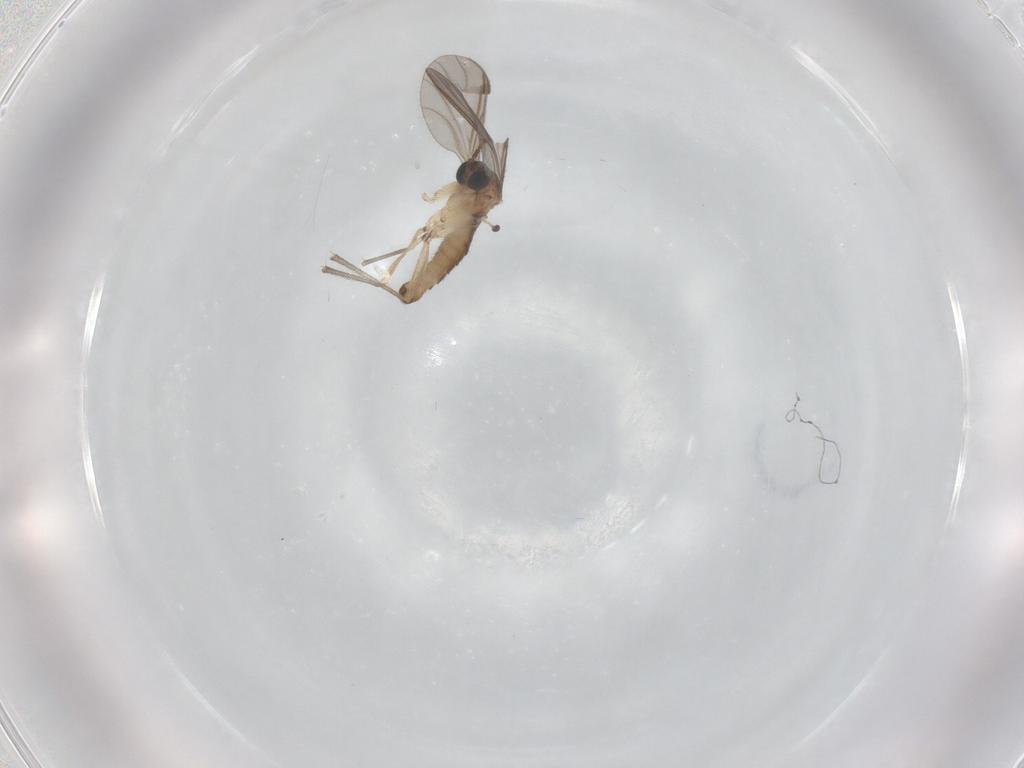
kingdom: Animalia
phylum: Arthropoda
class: Insecta
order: Diptera
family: Sciaridae
